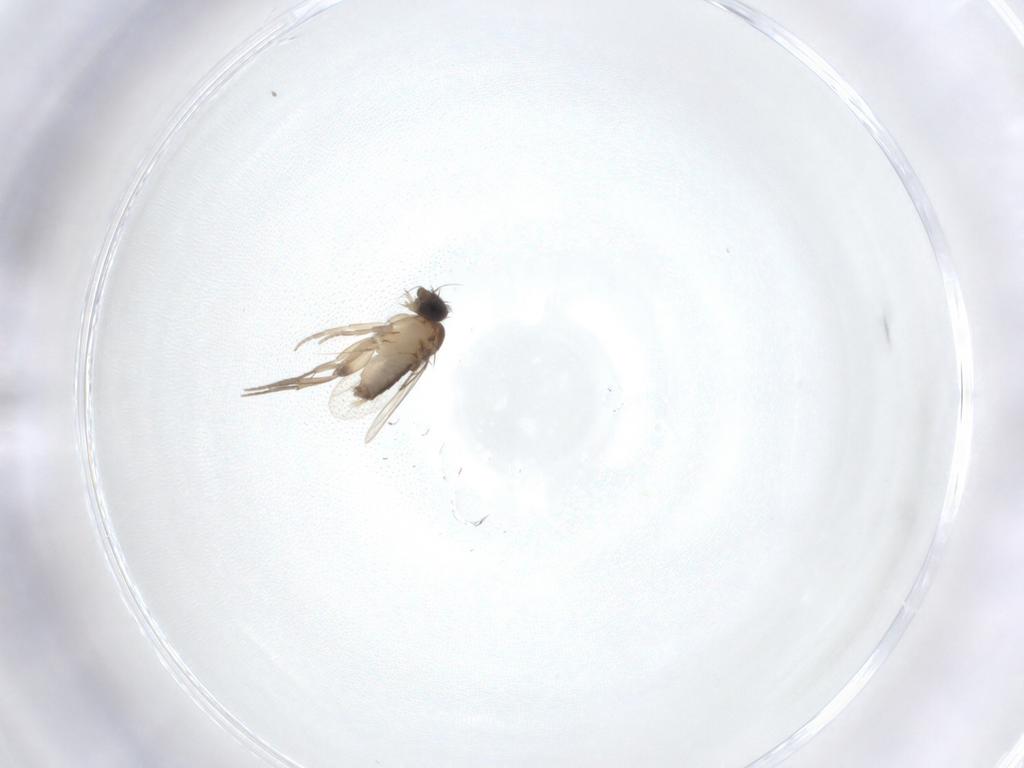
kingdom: Animalia
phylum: Arthropoda
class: Insecta
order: Diptera
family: Phoridae
